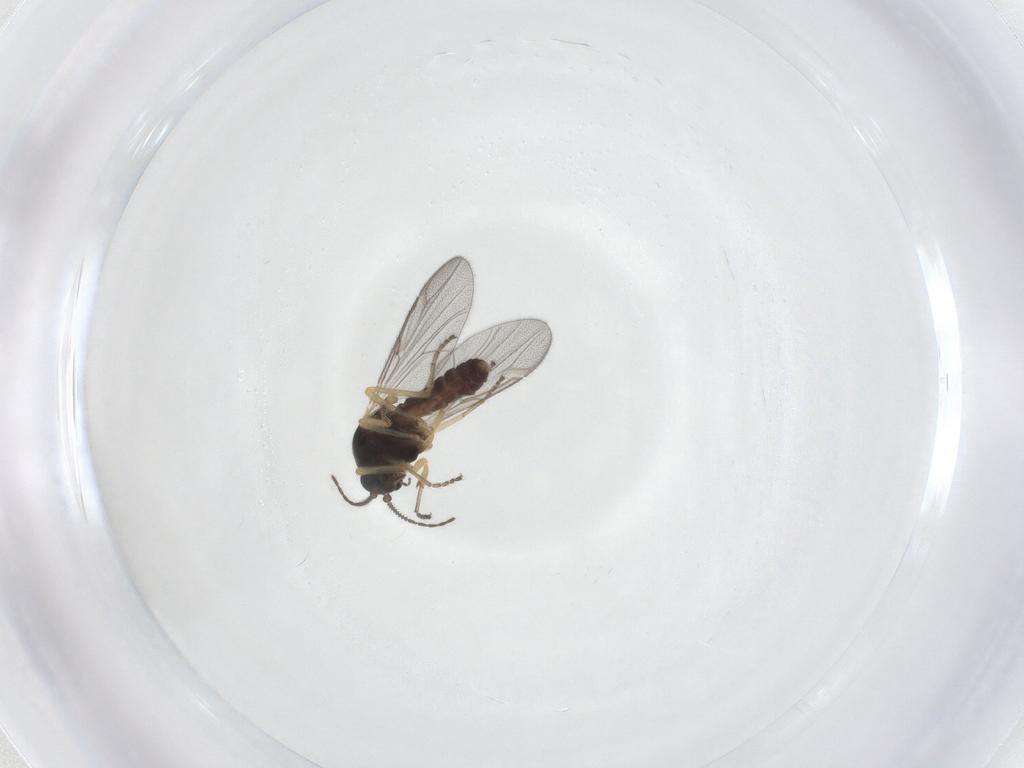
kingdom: Animalia
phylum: Arthropoda
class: Insecta
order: Diptera
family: Ceratopogonidae
